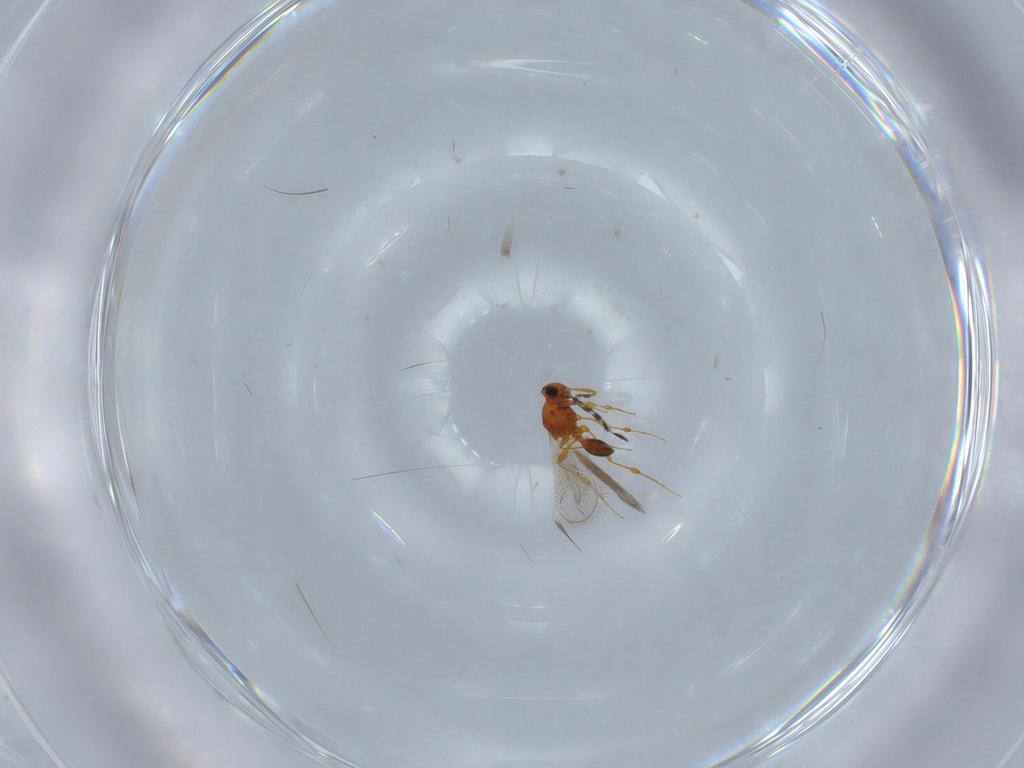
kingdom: Animalia
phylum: Arthropoda
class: Insecta
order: Hymenoptera
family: Platygastridae
